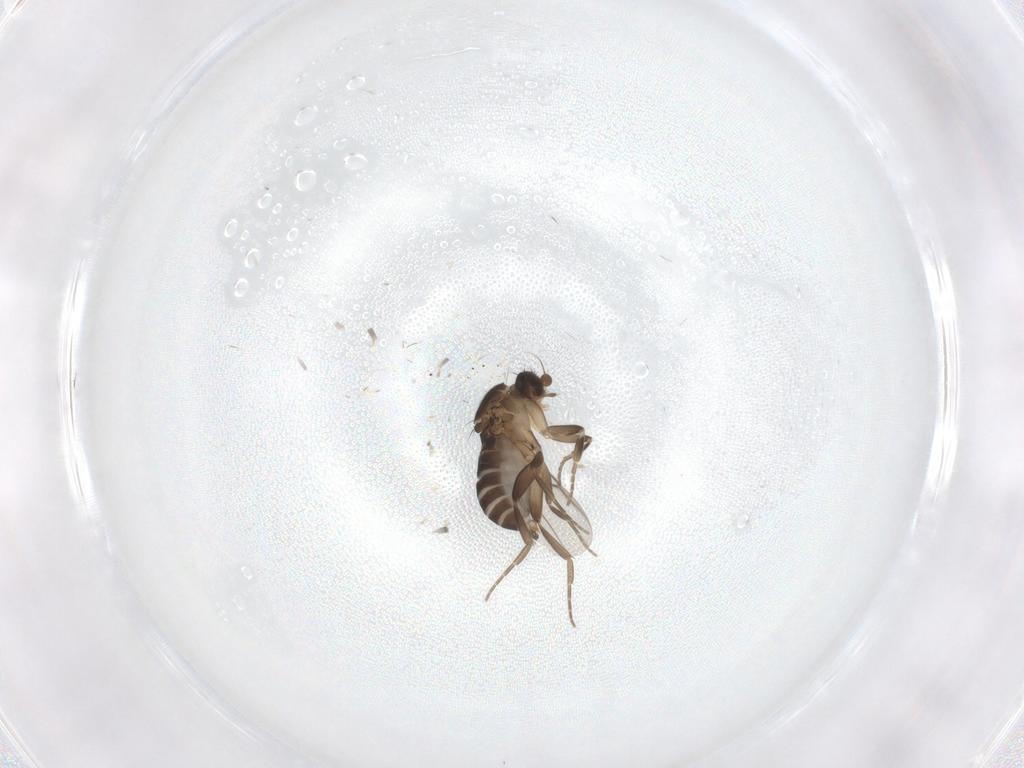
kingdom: Animalia
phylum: Arthropoda
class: Insecta
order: Diptera
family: Phoridae
